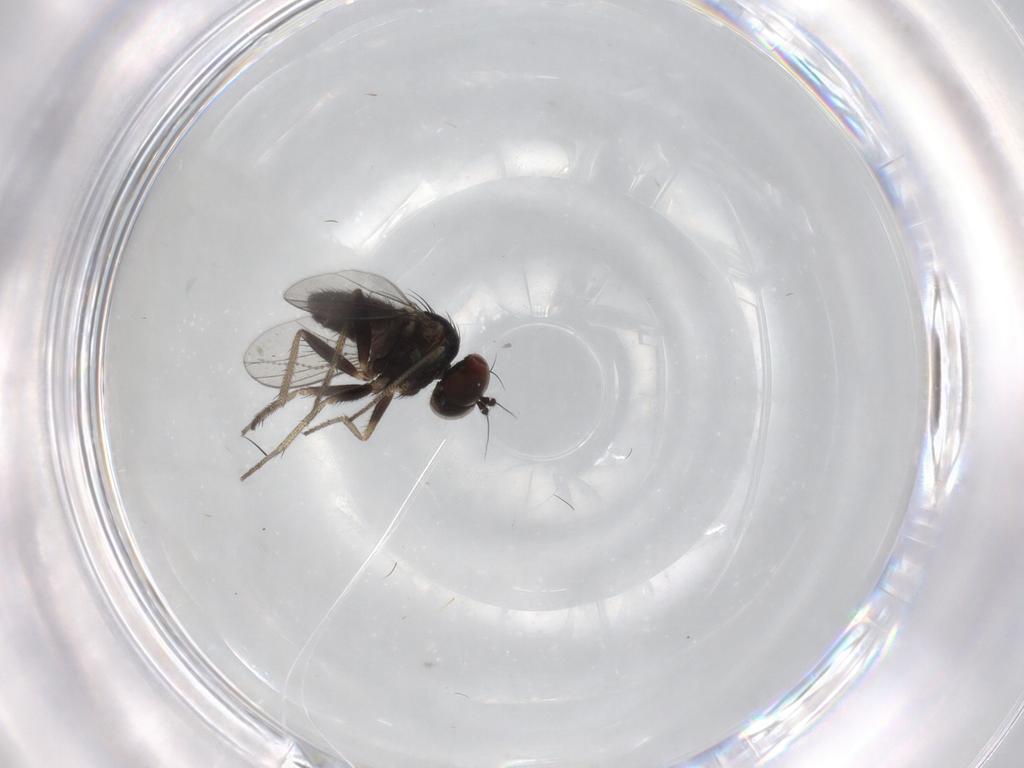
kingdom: Animalia
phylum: Arthropoda
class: Insecta
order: Diptera
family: Dolichopodidae
